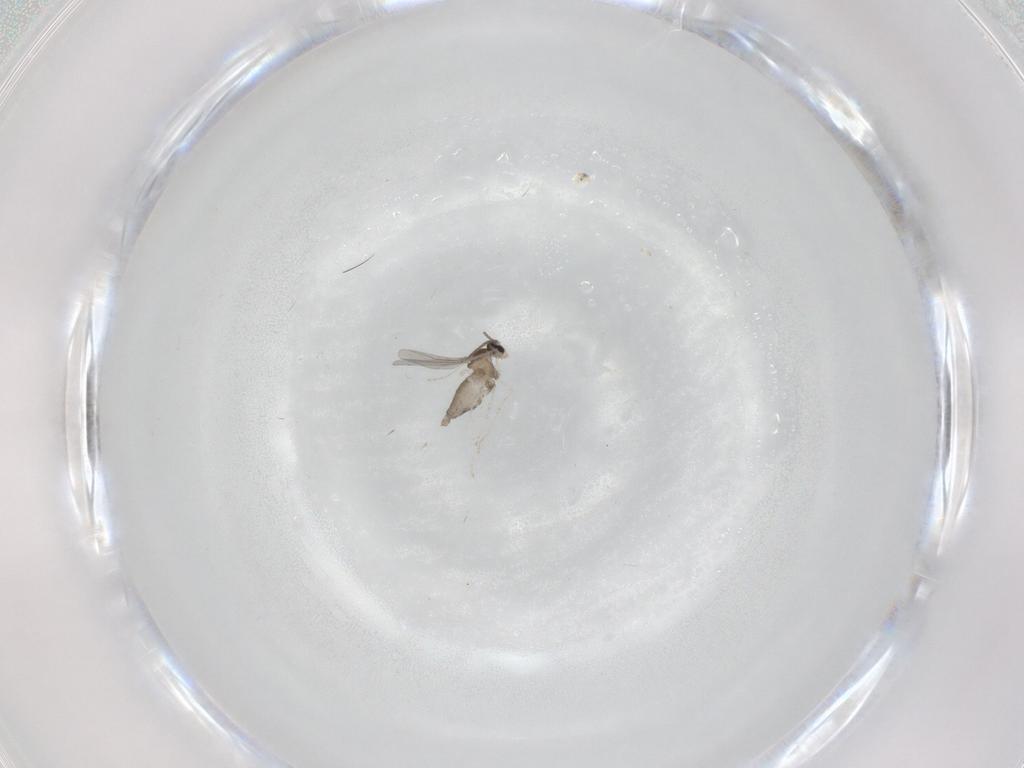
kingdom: Animalia
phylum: Arthropoda
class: Insecta
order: Diptera
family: Cecidomyiidae
